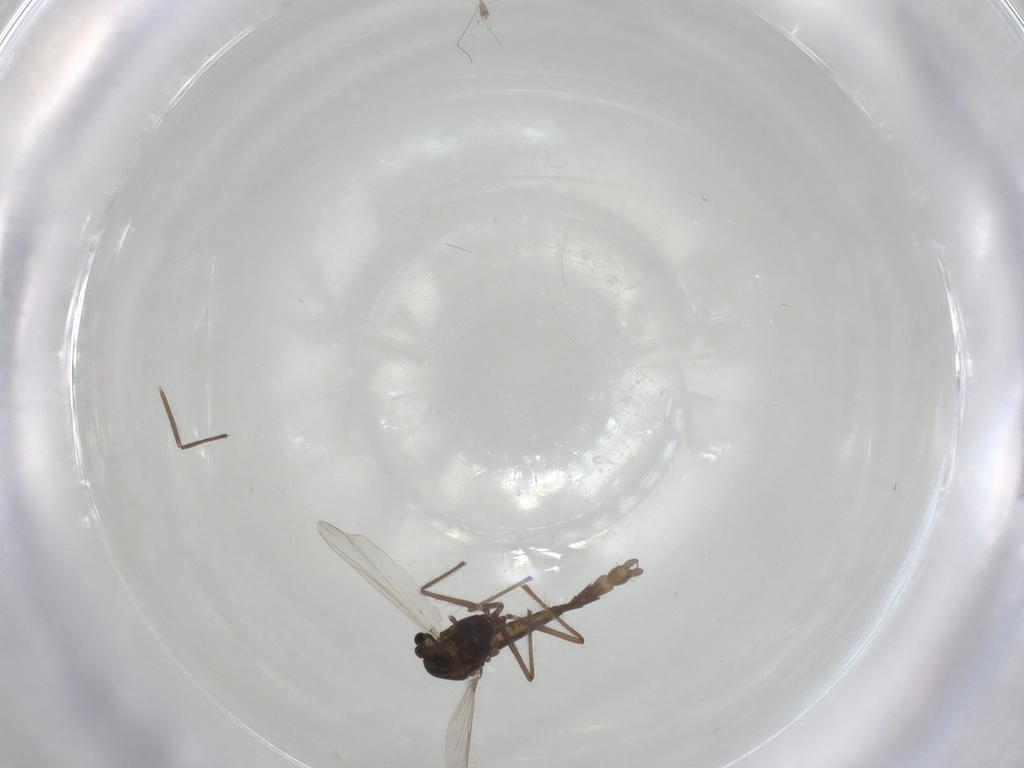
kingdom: Animalia
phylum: Arthropoda
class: Insecta
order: Diptera
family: Chironomidae
